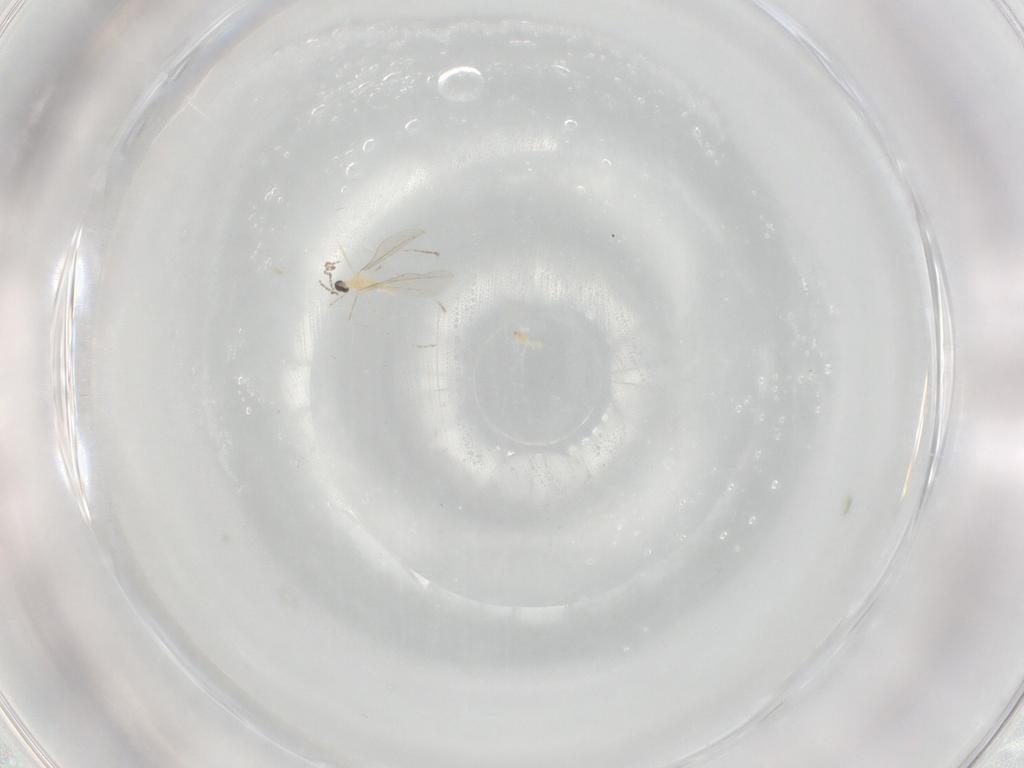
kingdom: Animalia
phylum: Arthropoda
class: Insecta
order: Diptera
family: Cecidomyiidae
